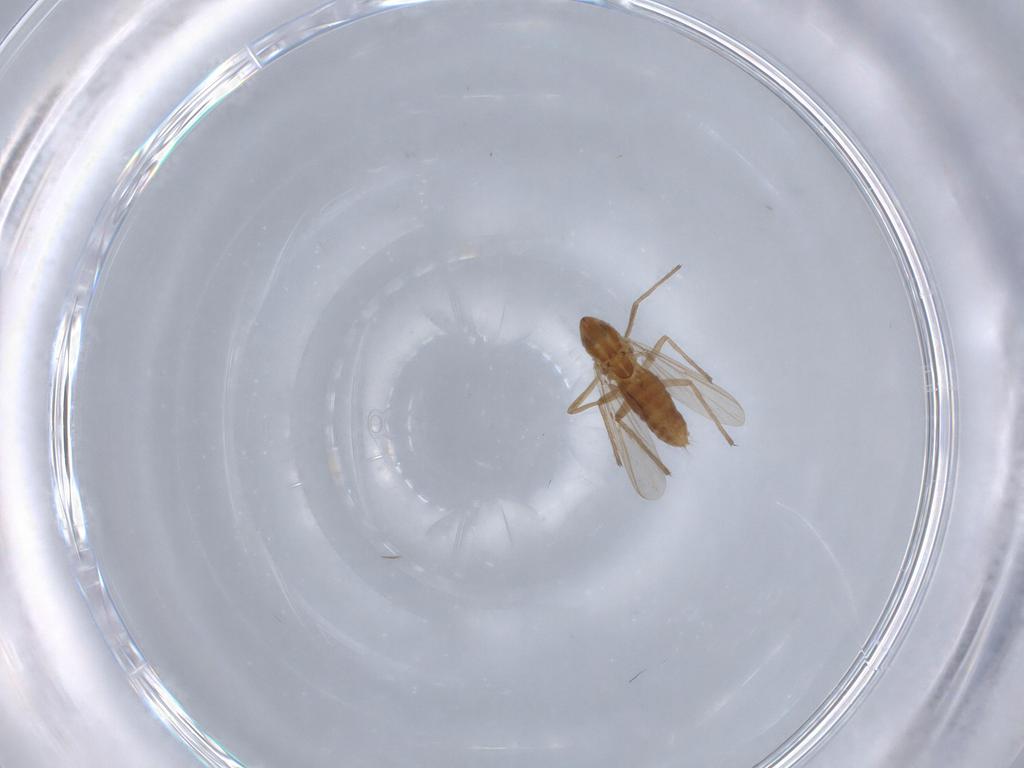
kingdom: Animalia
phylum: Arthropoda
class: Insecta
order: Diptera
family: Chironomidae
